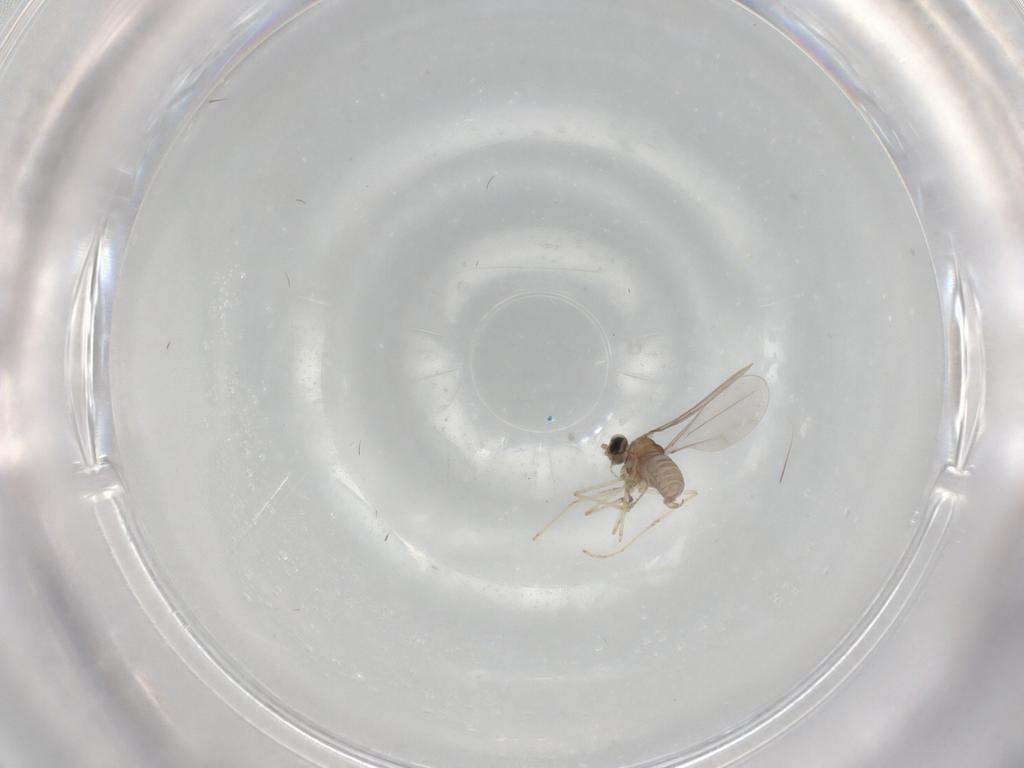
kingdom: Animalia
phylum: Arthropoda
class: Insecta
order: Diptera
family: Cecidomyiidae
